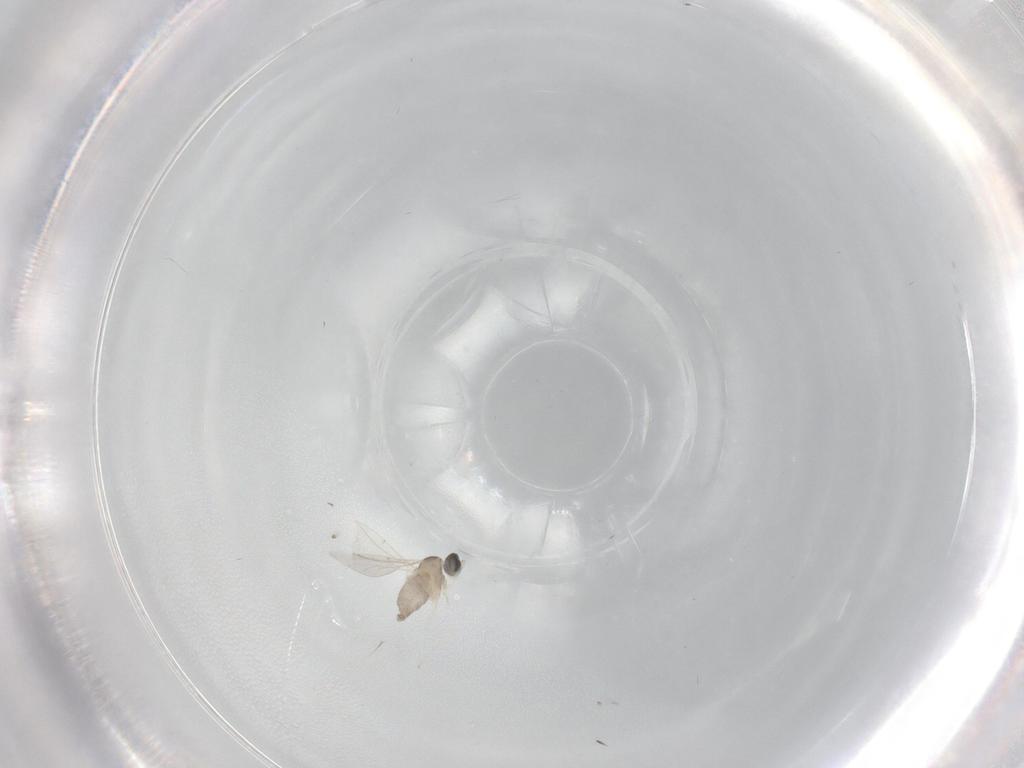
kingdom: Animalia
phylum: Arthropoda
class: Insecta
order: Diptera
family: Cecidomyiidae
